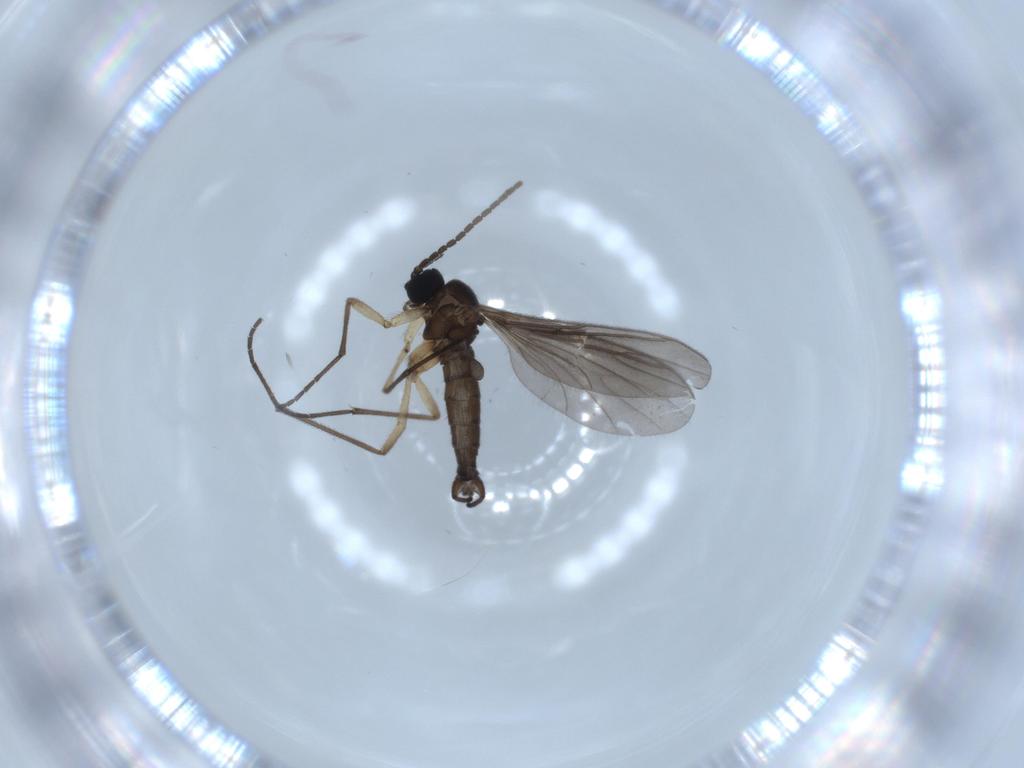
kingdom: Animalia
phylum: Arthropoda
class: Insecta
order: Diptera
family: Sciaridae
